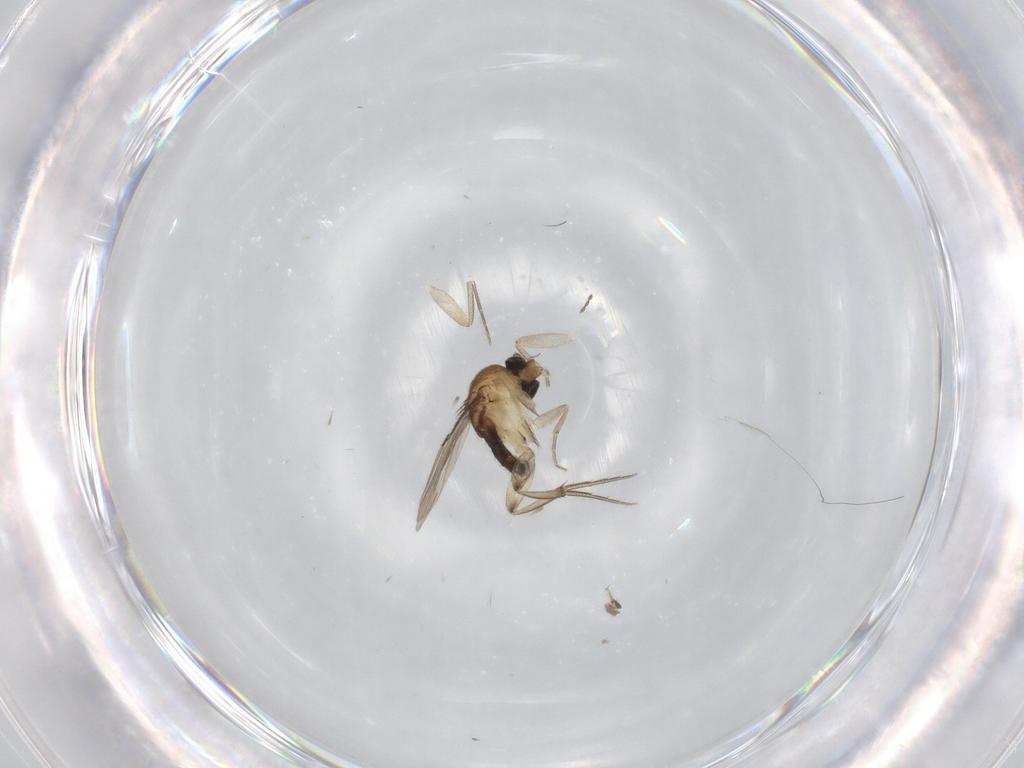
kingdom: Animalia
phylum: Arthropoda
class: Insecta
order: Diptera
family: Phoridae
